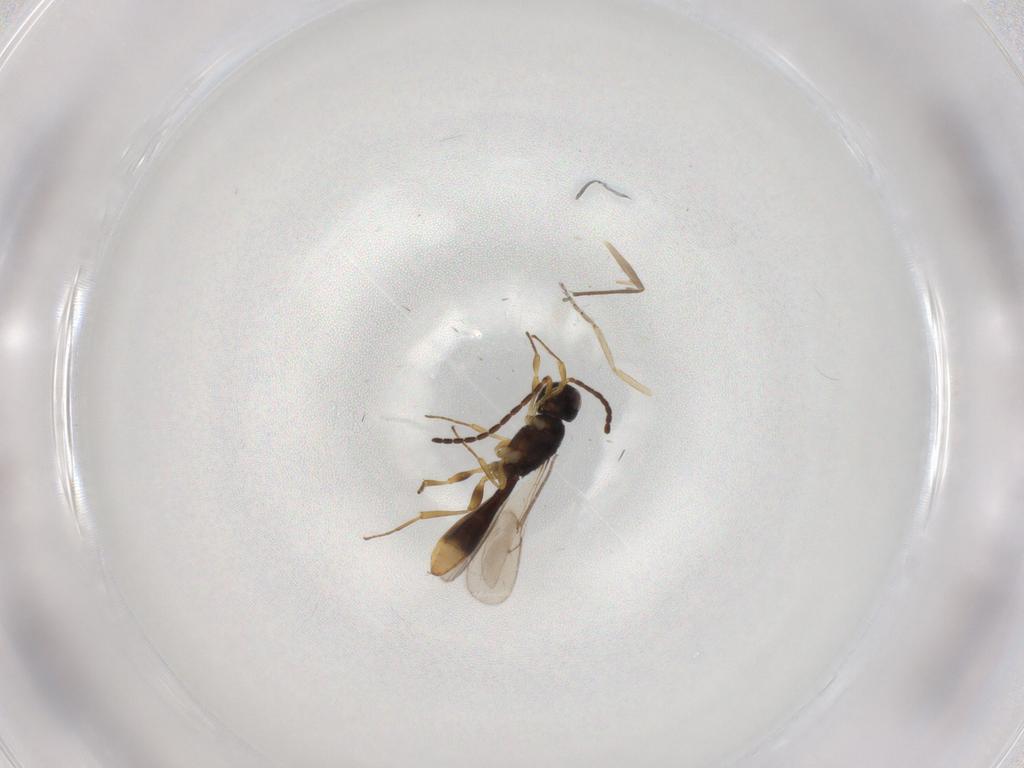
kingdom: Animalia
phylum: Arthropoda
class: Insecta
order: Hymenoptera
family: Scelionidae
